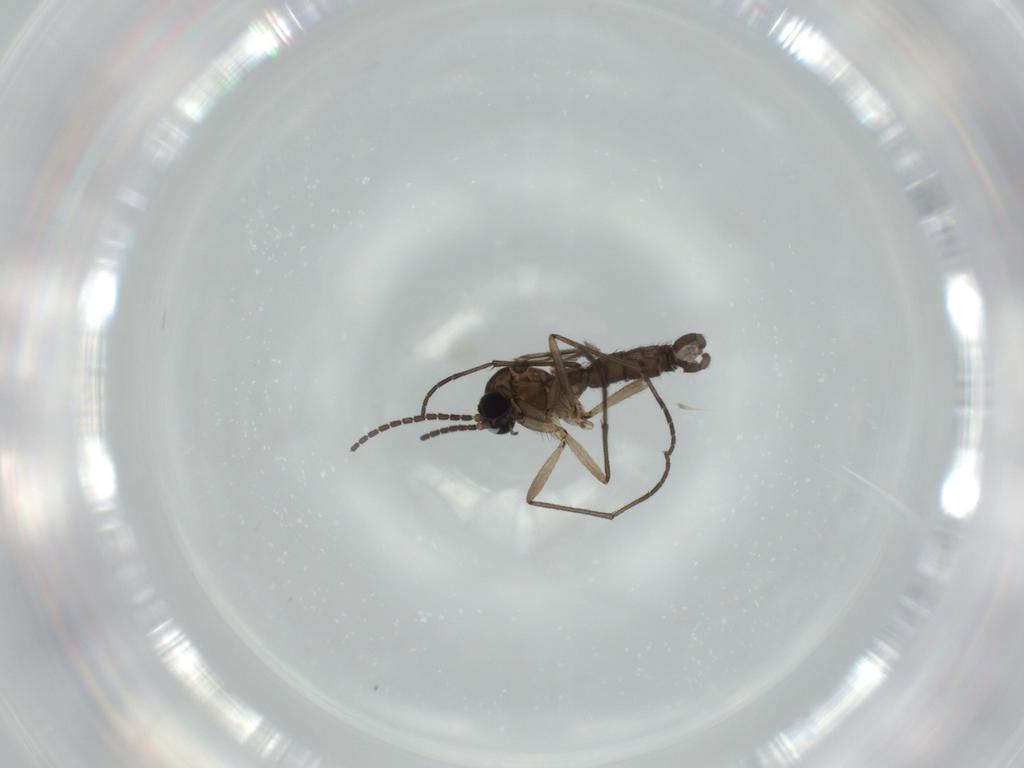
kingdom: Animalia
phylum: Arthropoda
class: Insecta
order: Diptera
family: Sciaridae
